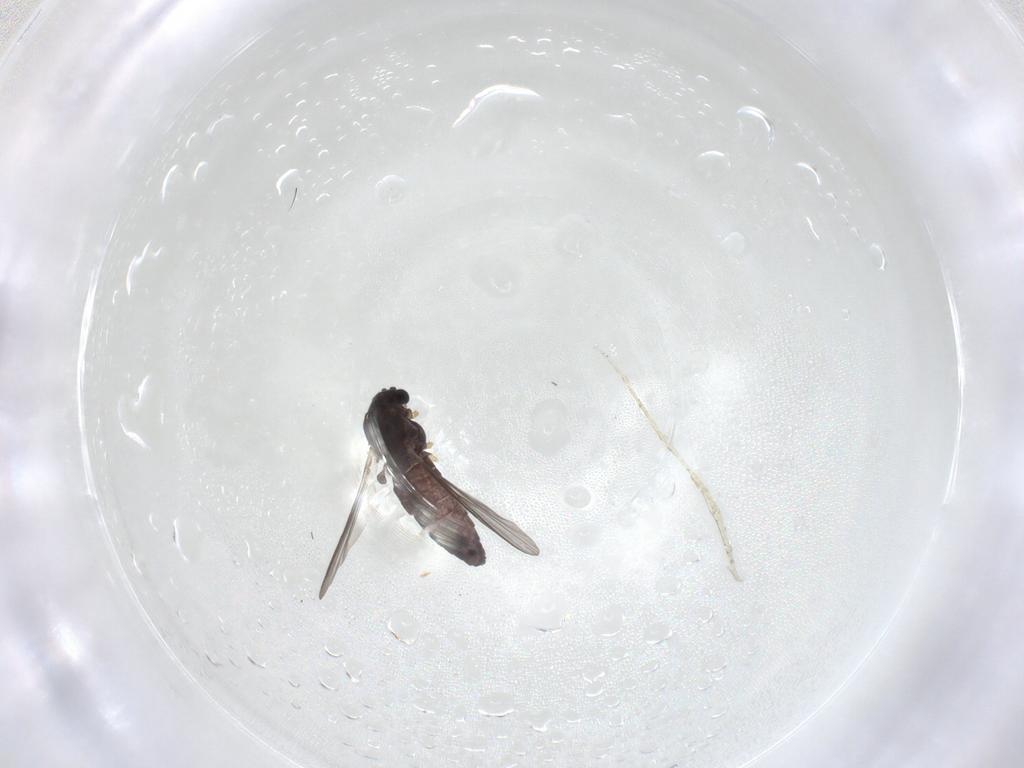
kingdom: Animalia
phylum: Arthropoda
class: Insecta
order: Diptera
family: Chironomidae
